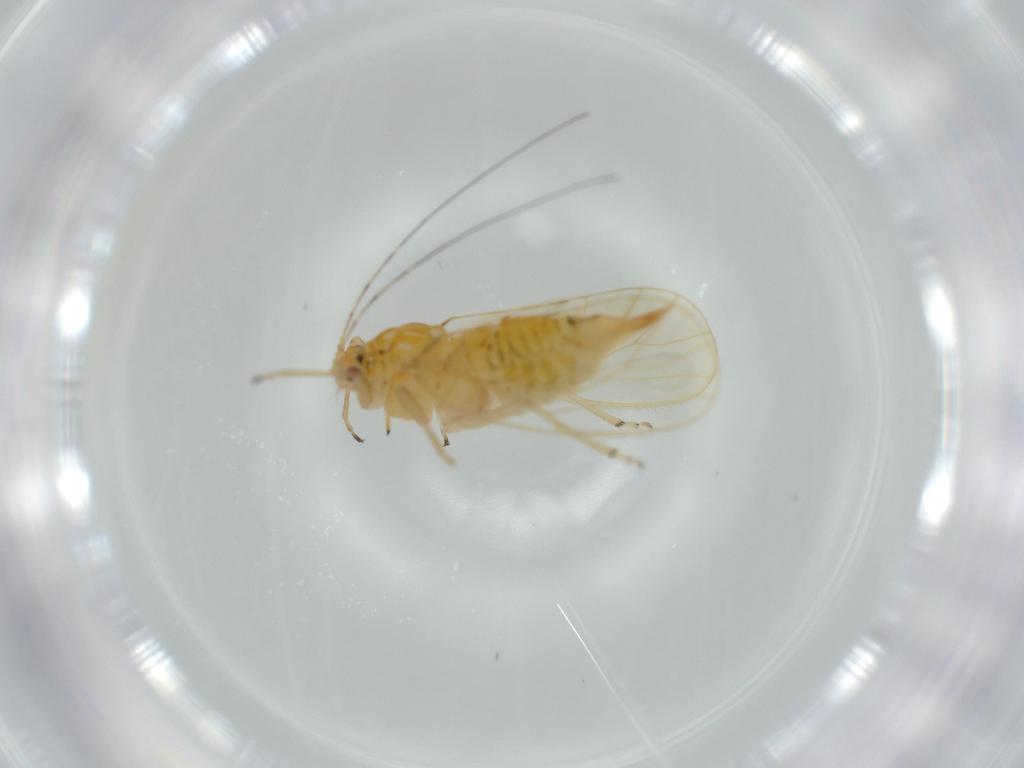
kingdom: Animalia
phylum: Arthropoda
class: Insecta
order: Hemiptera
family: Psyllidae
